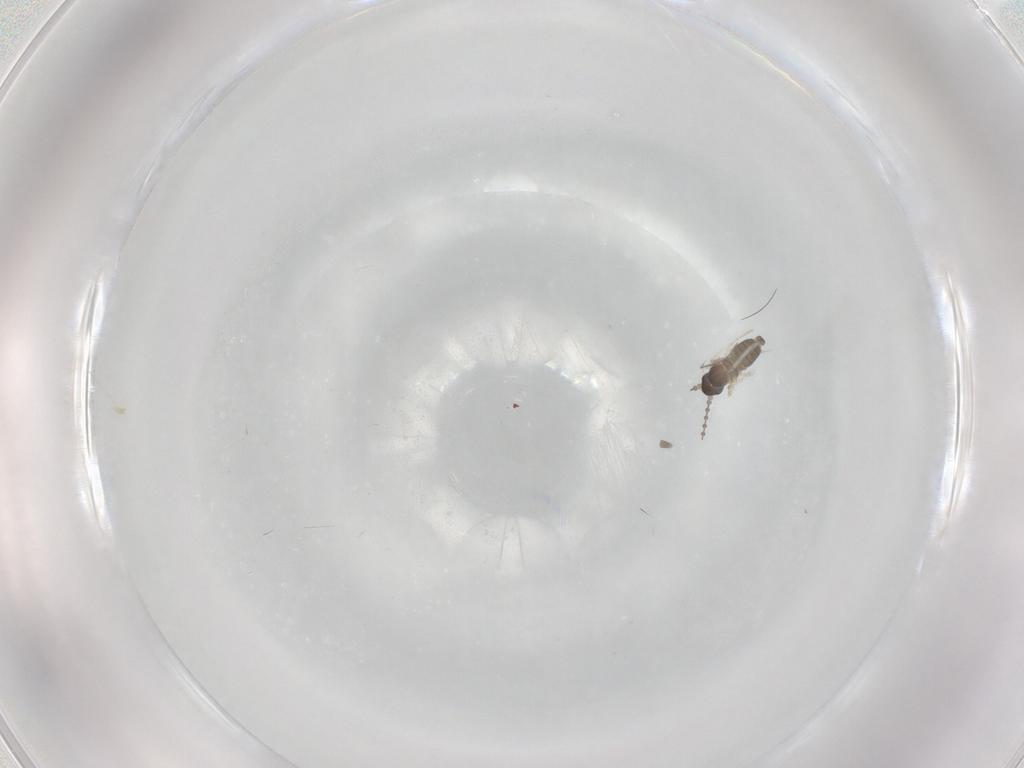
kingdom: Animalia
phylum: Arthropoda
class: Insecta
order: Diptera
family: Cecidomyiidae
